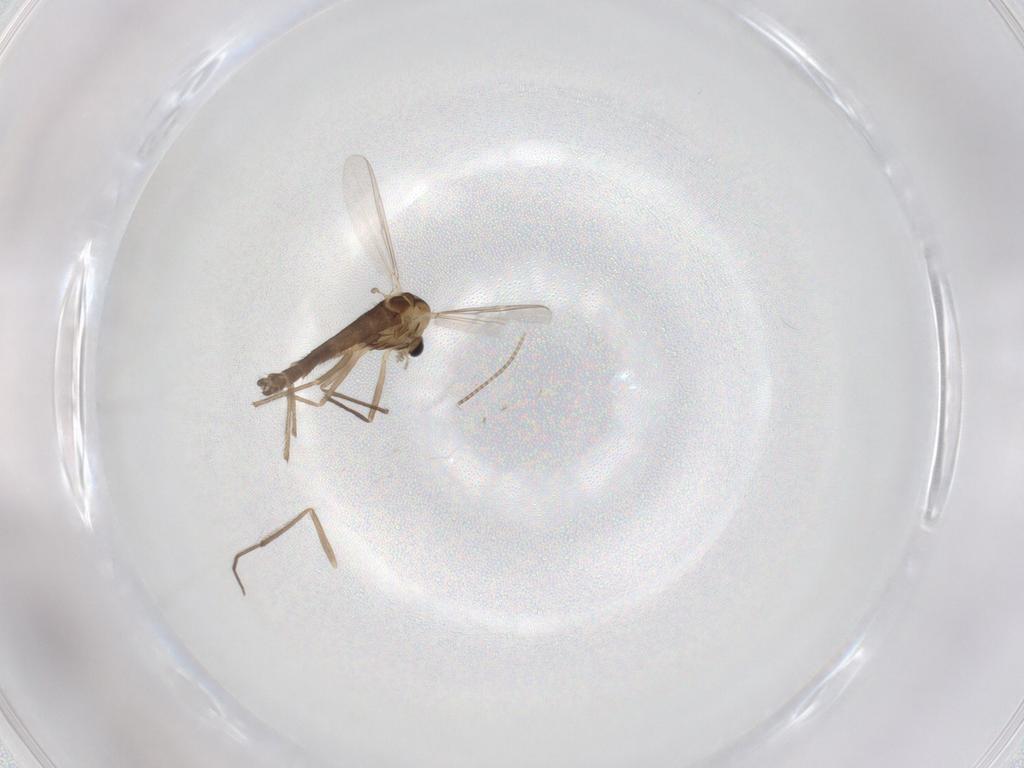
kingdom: Animalia
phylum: Arthropoda
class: Insecta
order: Diptera
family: Chironomidae
